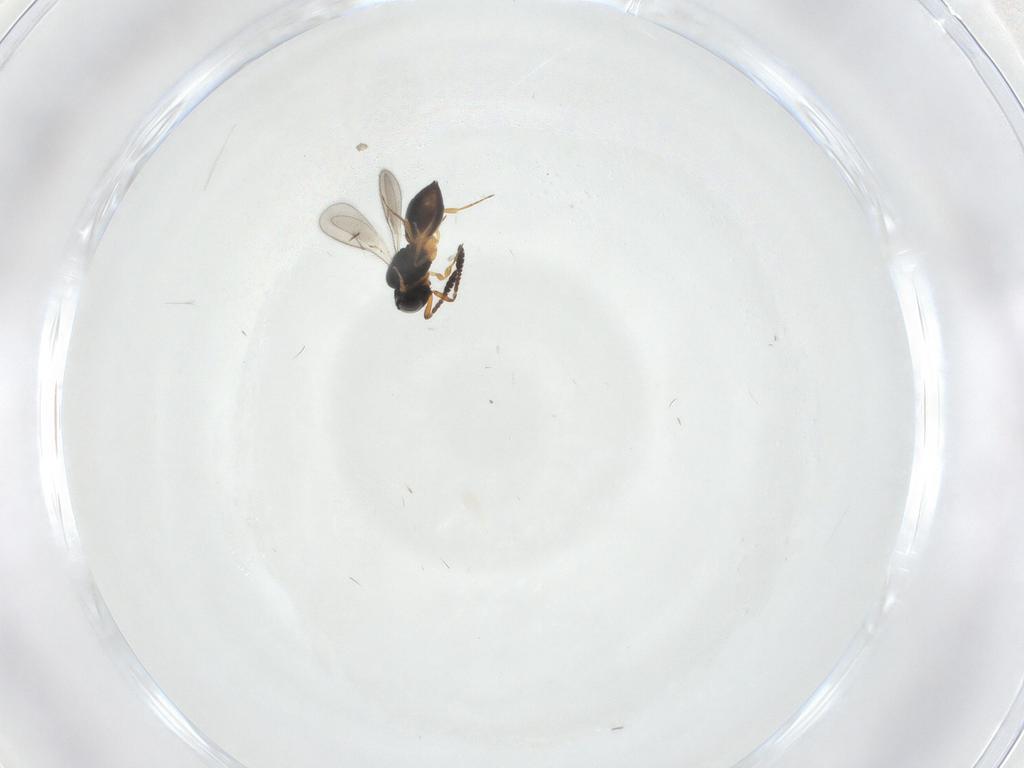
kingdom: Animalia
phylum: Arthropoda
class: Insecta
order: Hymenoptera
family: Scelionidae
